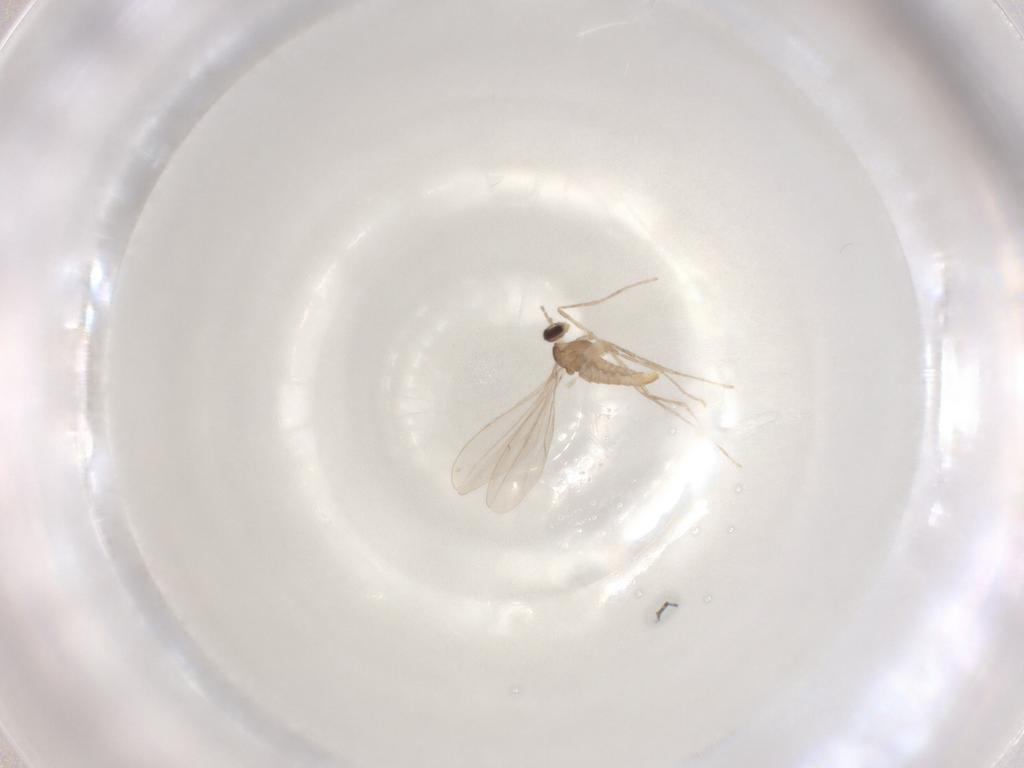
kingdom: Animalia
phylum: Arthropoda
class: Insecta
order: Diptera
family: Cecidomyiidae
